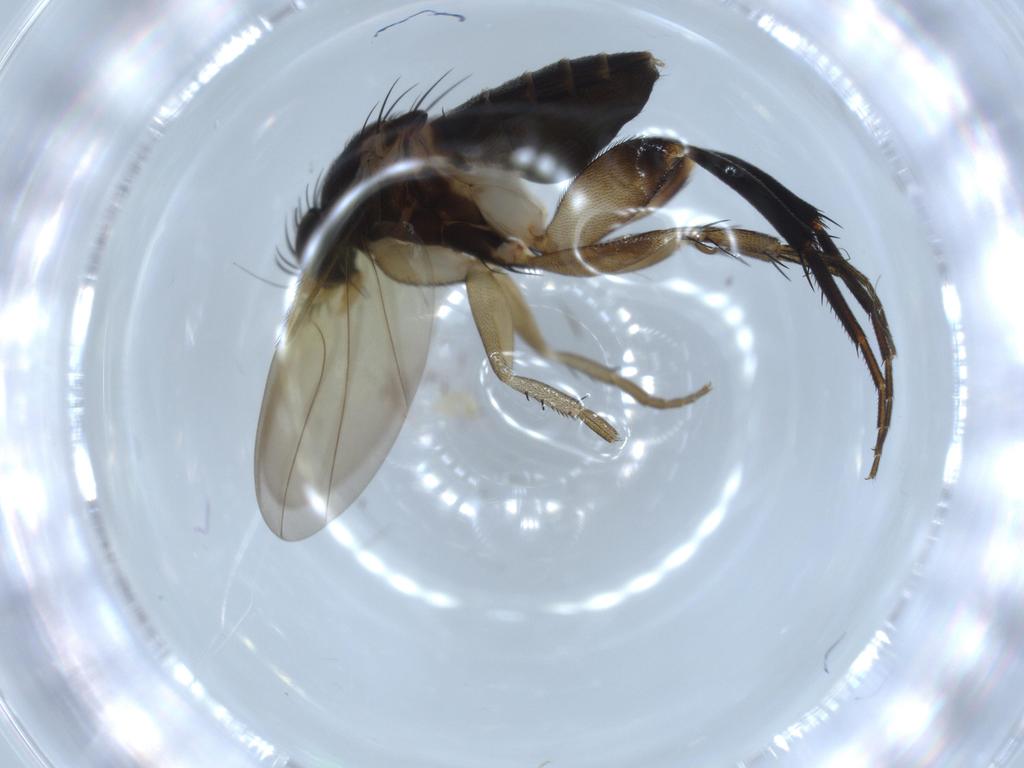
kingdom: Animalia
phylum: Arthropoda
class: Insecta
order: Diptera
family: Phoridae
